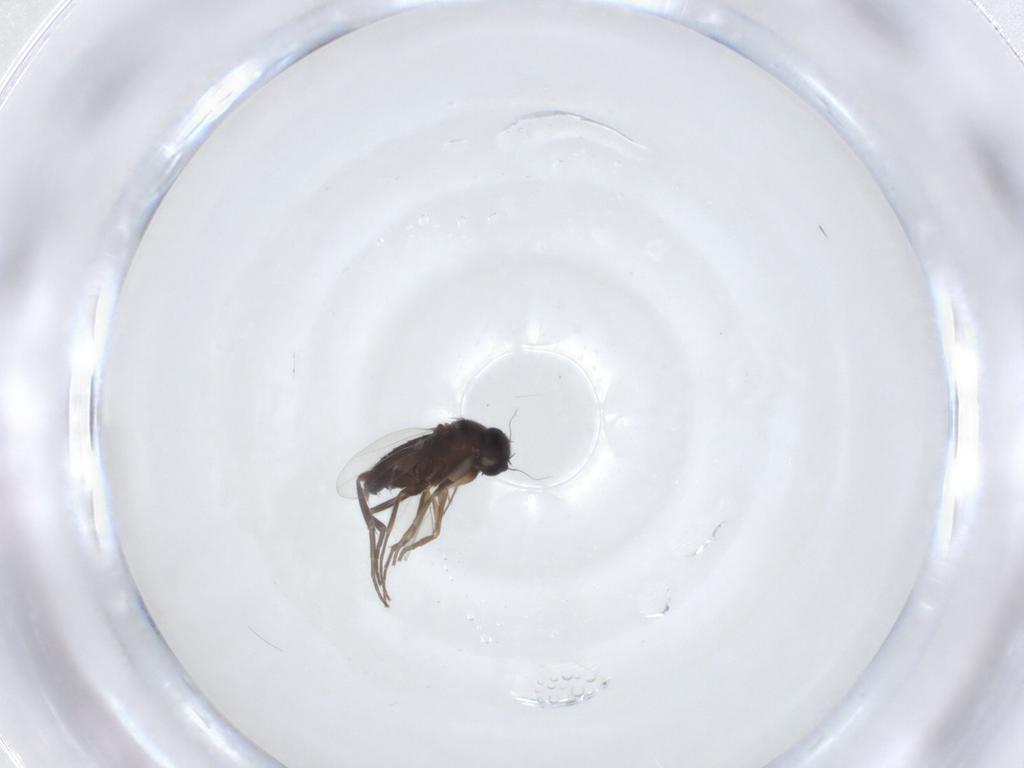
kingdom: Animalia
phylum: Arthropoda
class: Insecta
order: Diptera
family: Phoridae
